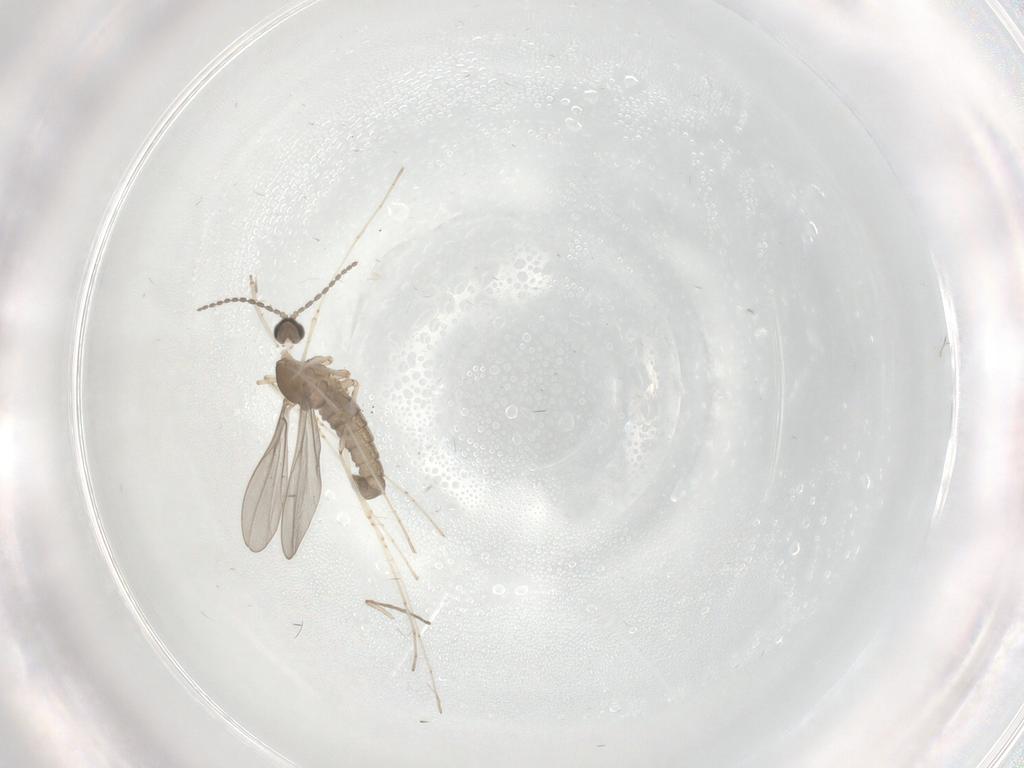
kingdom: Animalia
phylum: Arthropoda
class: Insecta
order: Diptera
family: Cecidomyiidae
